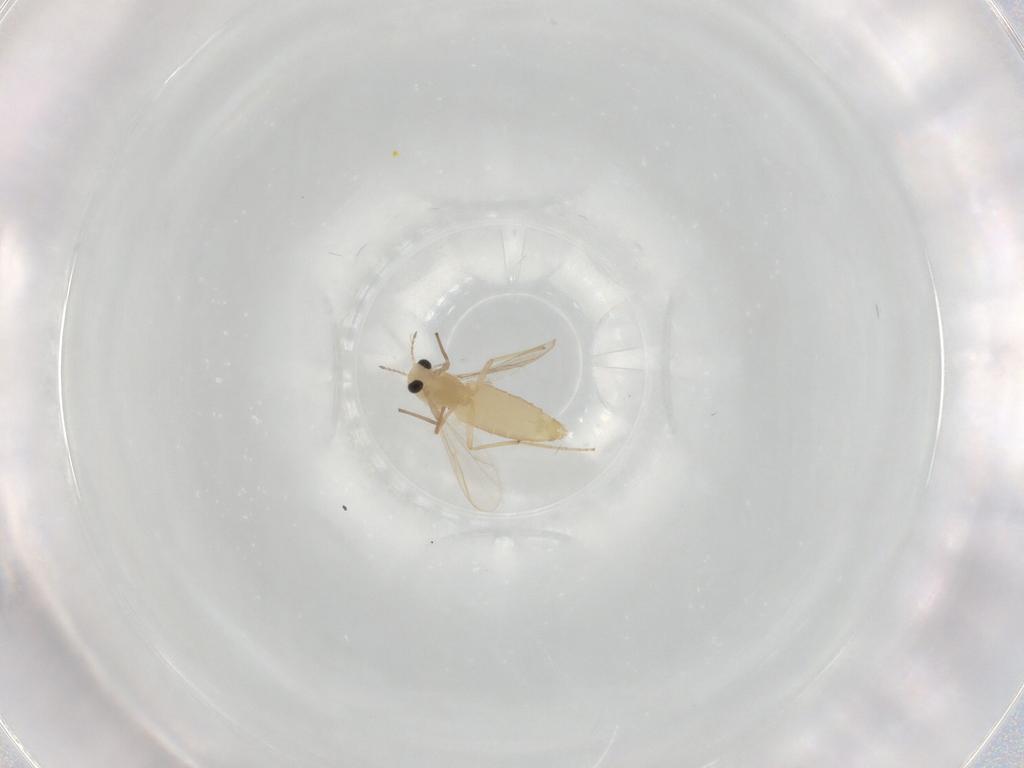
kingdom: Animalia
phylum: Arthropoda
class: Insecta
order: Diptera
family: Chironomidae
